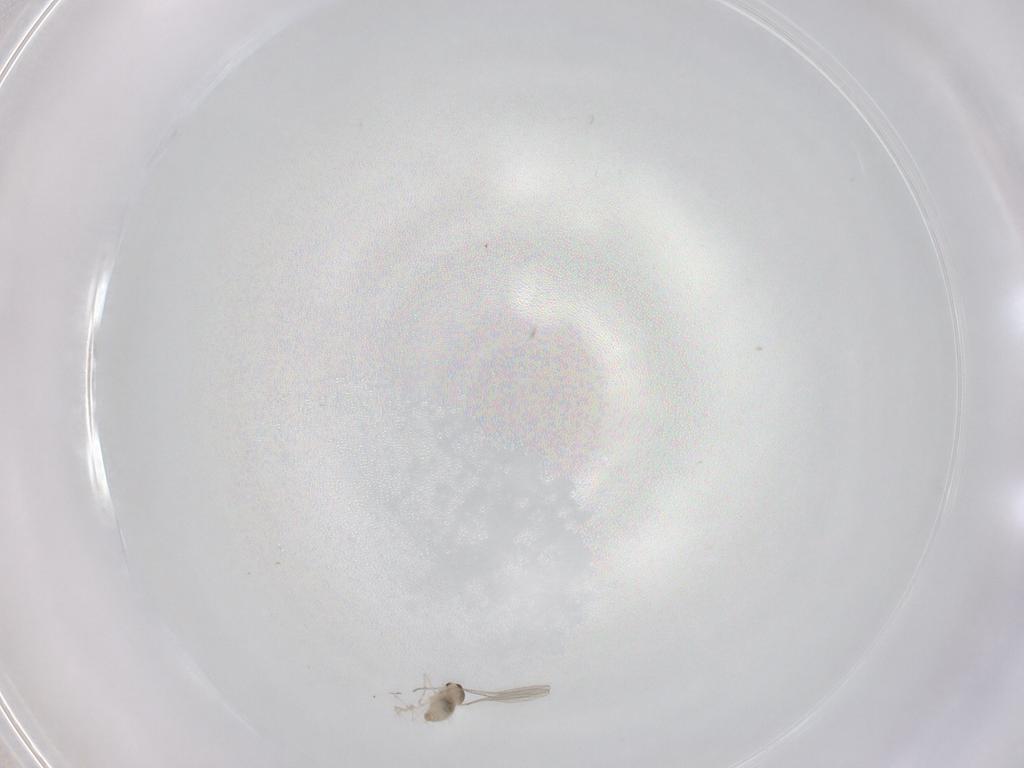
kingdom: Animalia
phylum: Arthropoda
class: Insecta
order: Diptera
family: Cecidomyiidae
